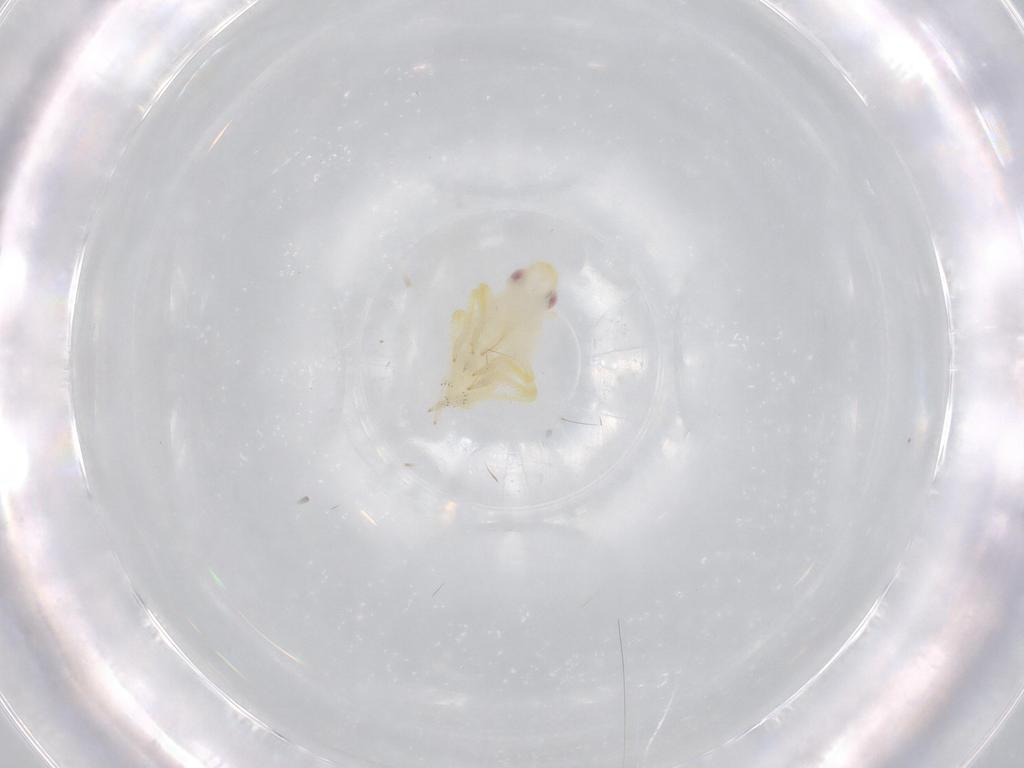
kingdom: Animalia
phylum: Arthropoda
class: Insecta
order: Hemiptera
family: Tropiduchidae
